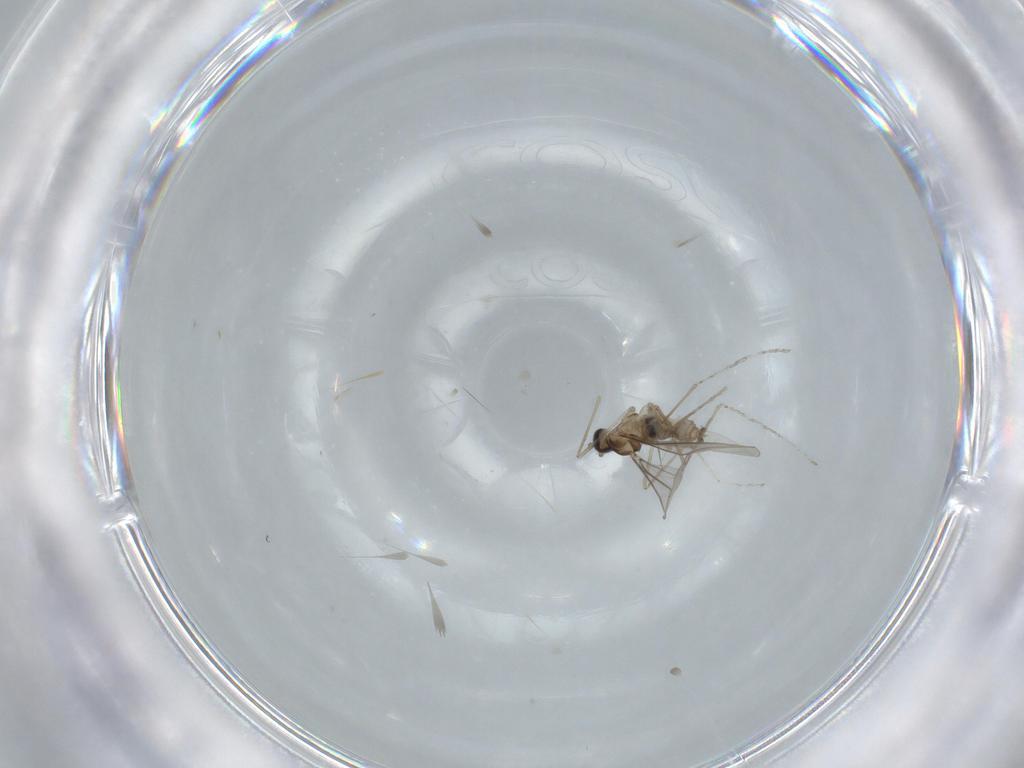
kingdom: Animalia
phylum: Arthropoda
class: Insecta
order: Diptera
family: Cecidomyiidae
